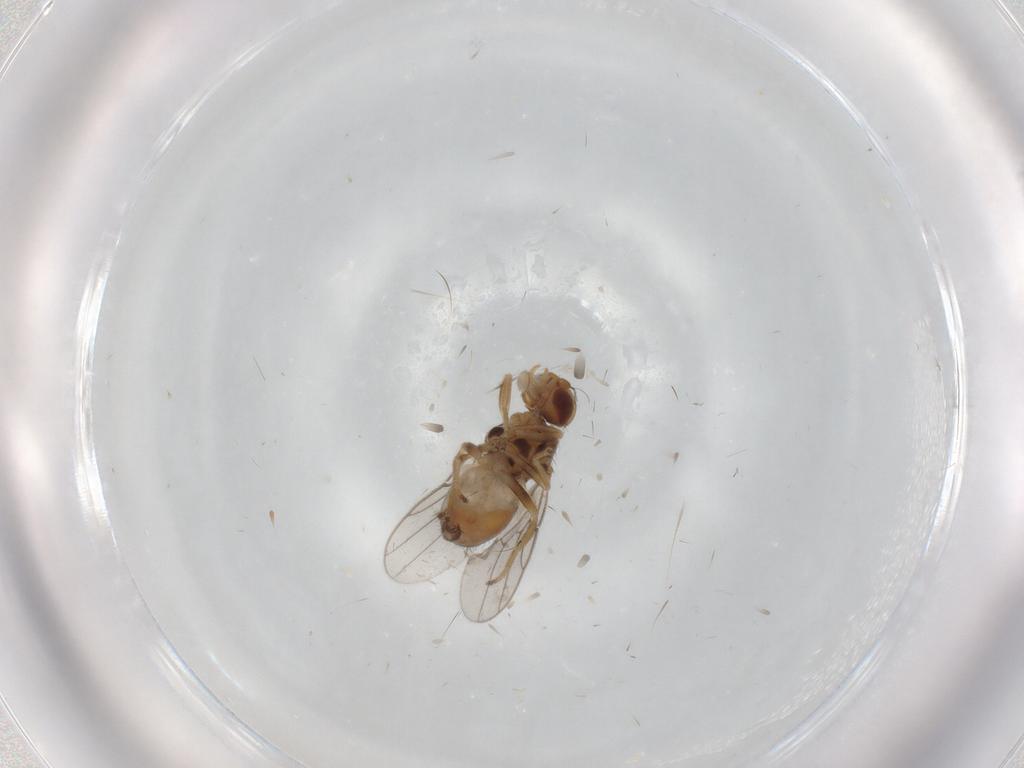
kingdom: Animalia
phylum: Arthropoda
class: Insecta
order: Diptera
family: Chloropidae
